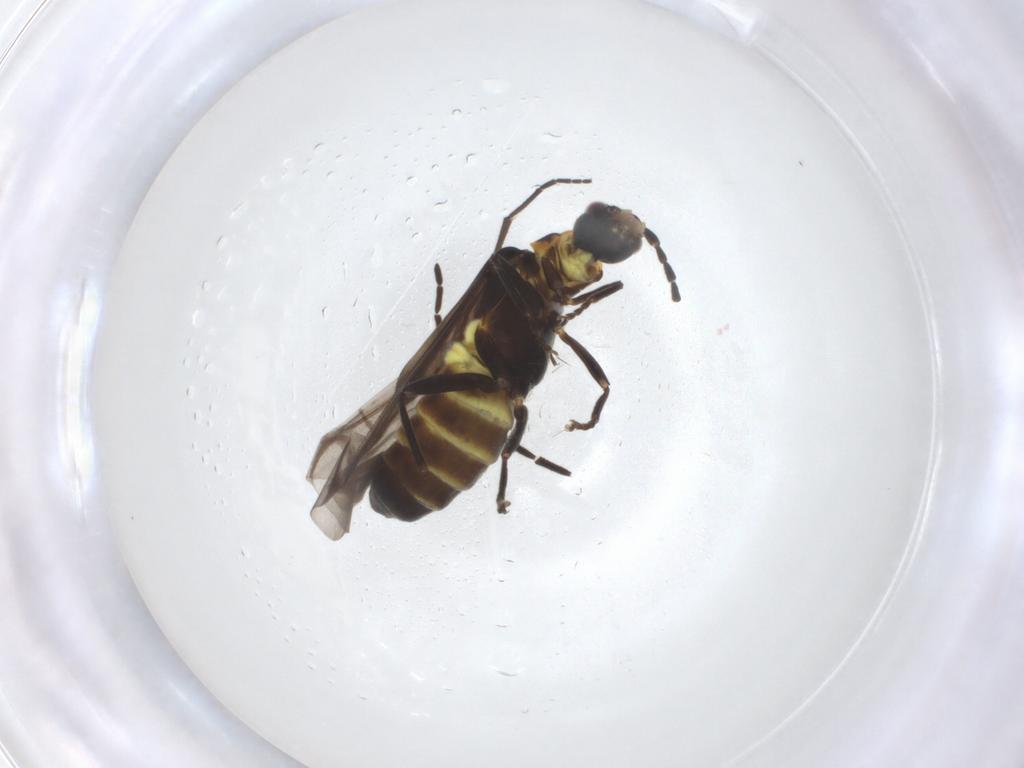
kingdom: Animalia
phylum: Arthropoda
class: Insecta
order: Coleoptera
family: Cantharidae
